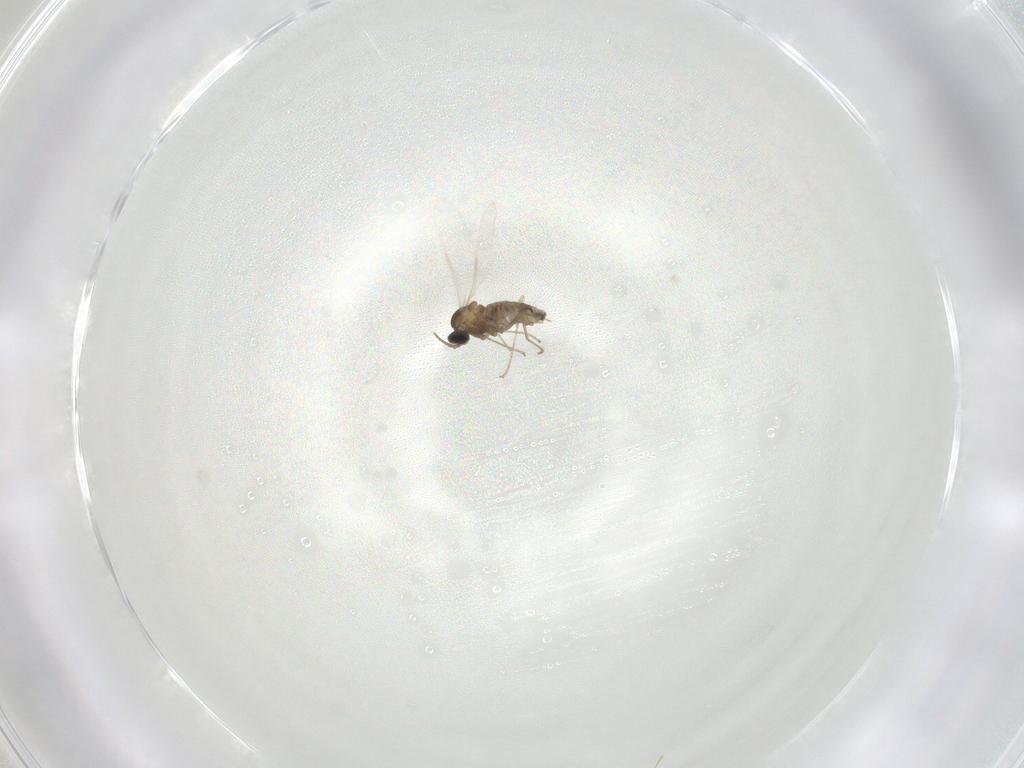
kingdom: Animalia
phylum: Arthropoda
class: Insecta
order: Diptera
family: Cecidomyiidae
